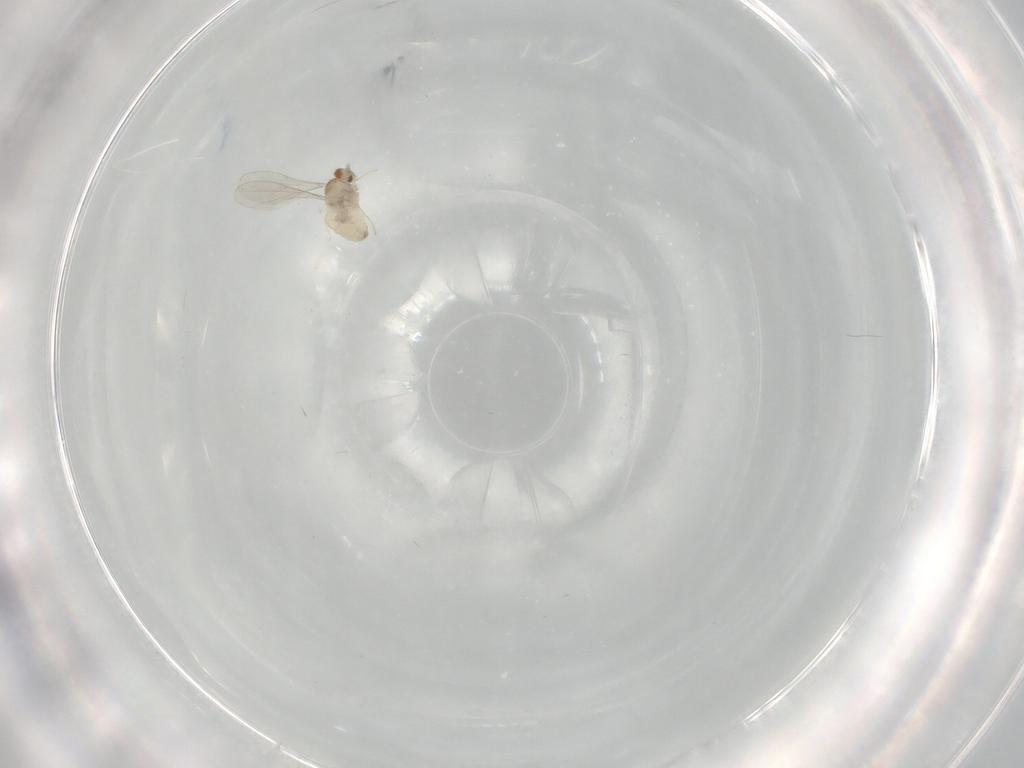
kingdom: Animalia
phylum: Arthropoda
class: Insecta
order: Diptera
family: Cecidomyiidae
